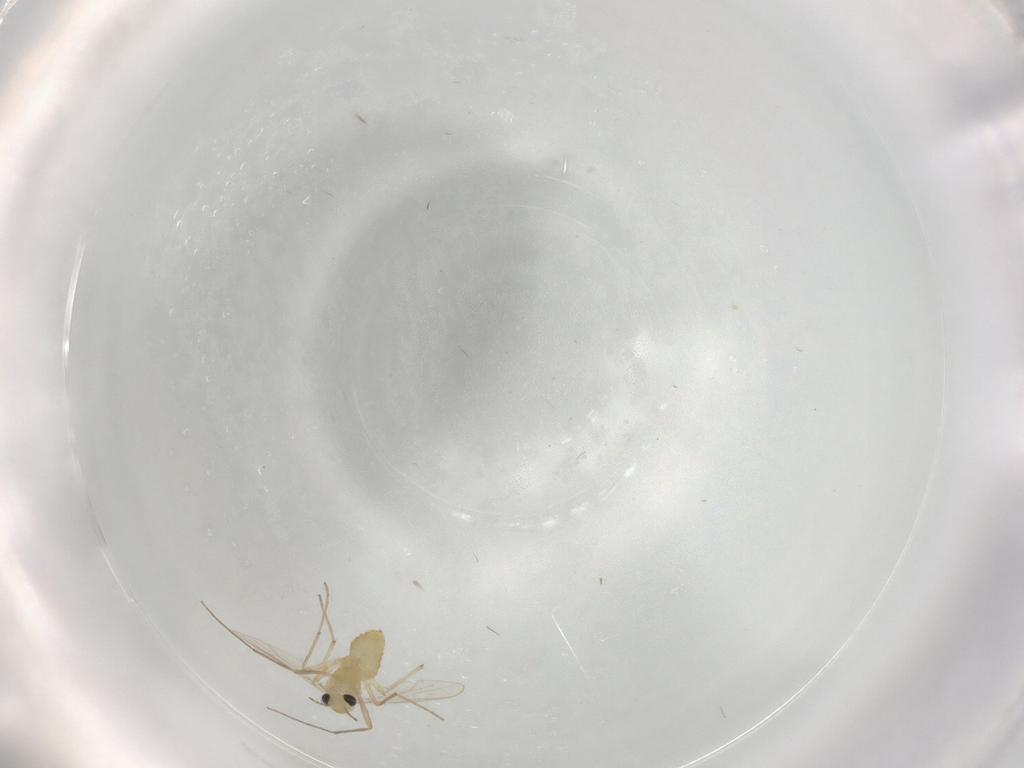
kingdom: Animalia
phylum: Arthropoda
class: Insecta
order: Diptera
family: Chironomidae
